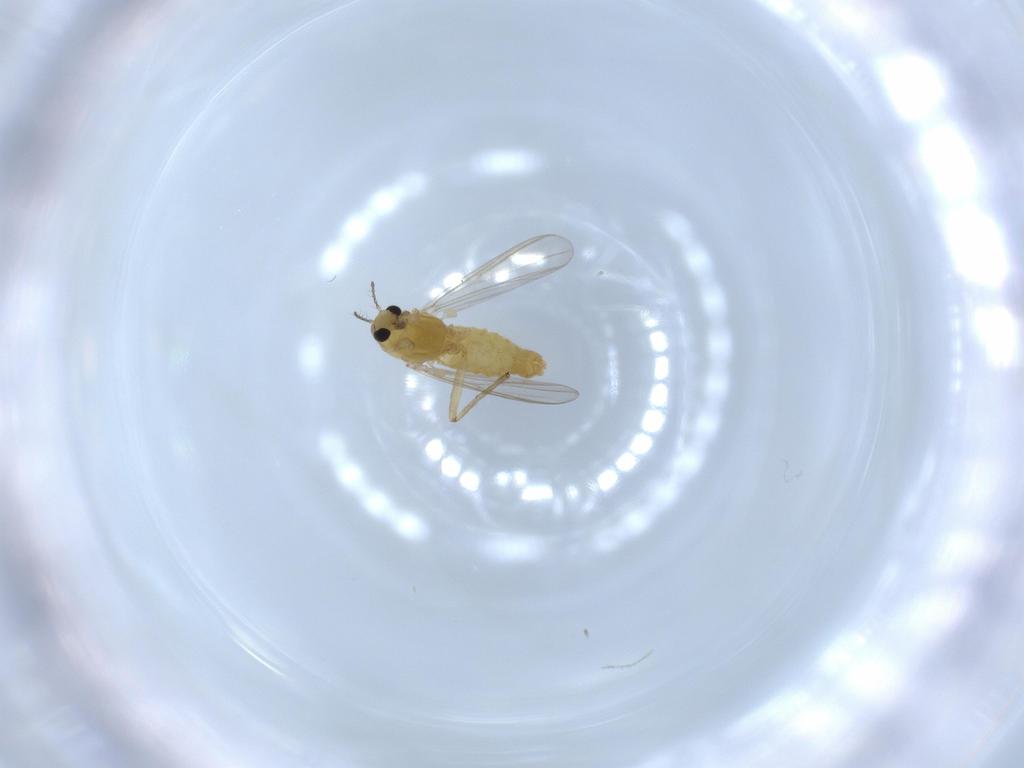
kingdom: Animalia
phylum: Arthropoda
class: Insecta
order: Diptera
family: Chironomidae
